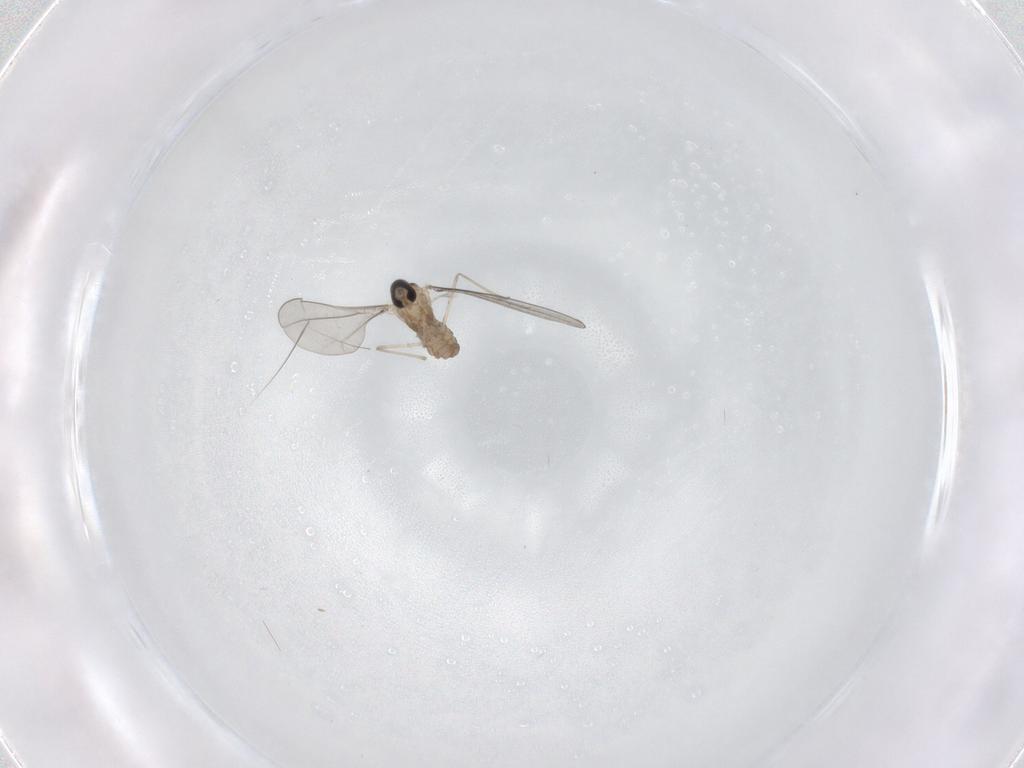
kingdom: Animalia
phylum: Arthropoda
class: Insecta
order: Diptera
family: Cecidomyiidae
